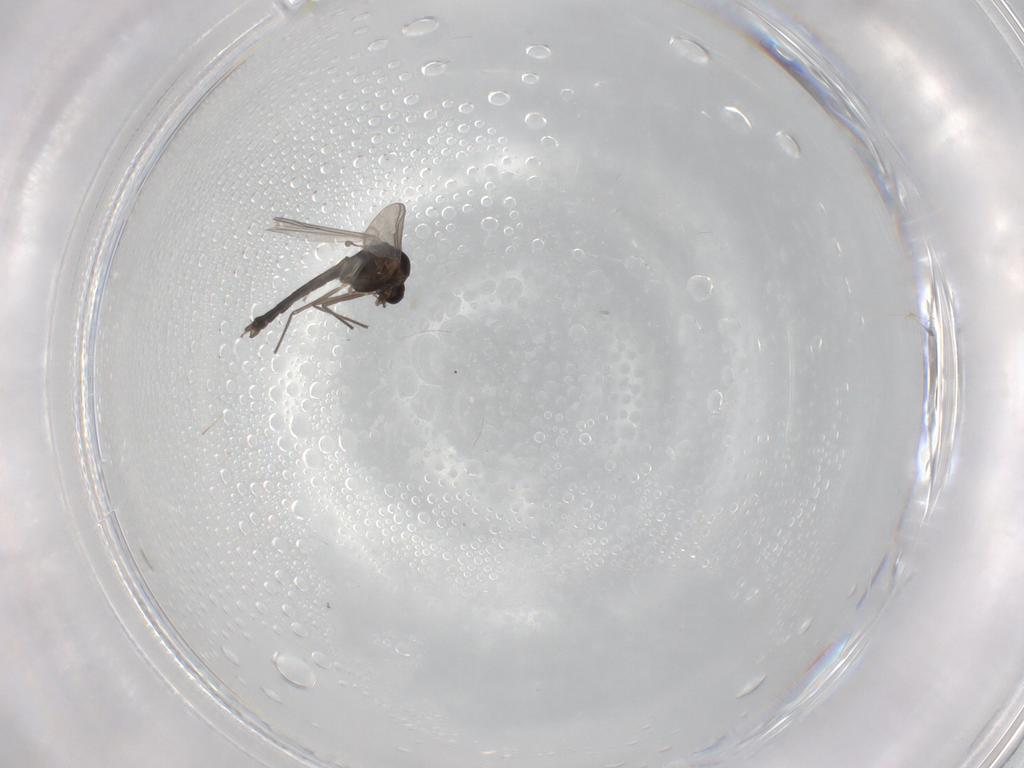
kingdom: Animalia
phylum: Arthropoda
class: Insecta
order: Diptera
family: Chironomidae
